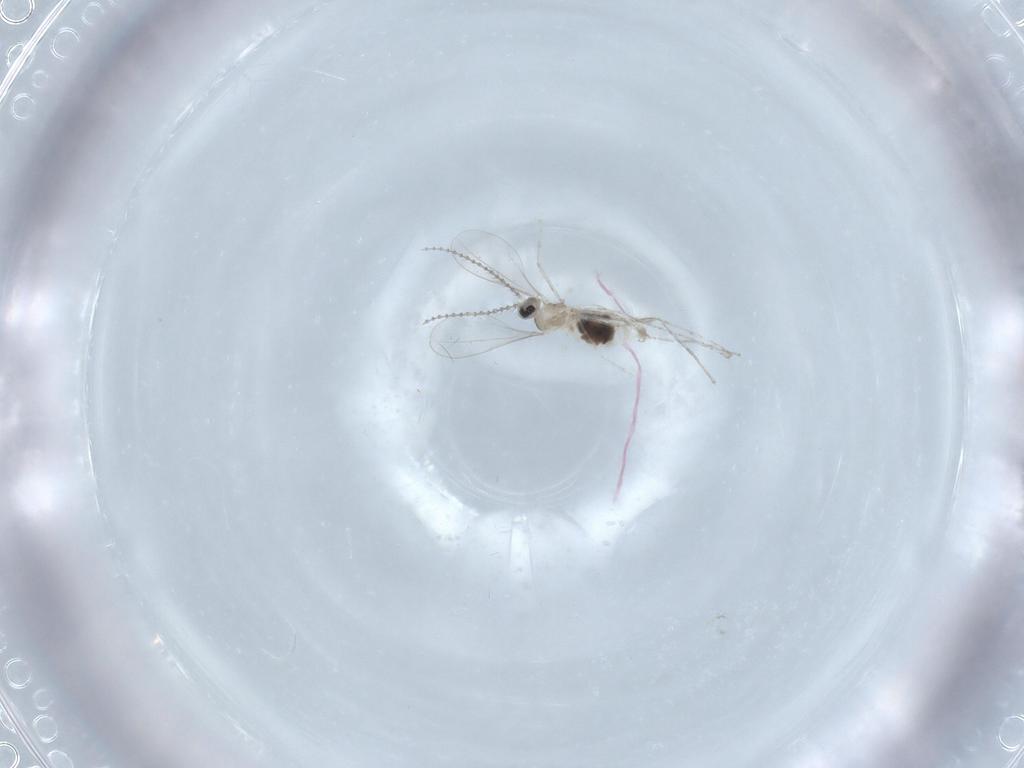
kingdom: Animalia
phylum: Arthropoda
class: Insecta
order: Diptera
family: Cecidomyiidae
